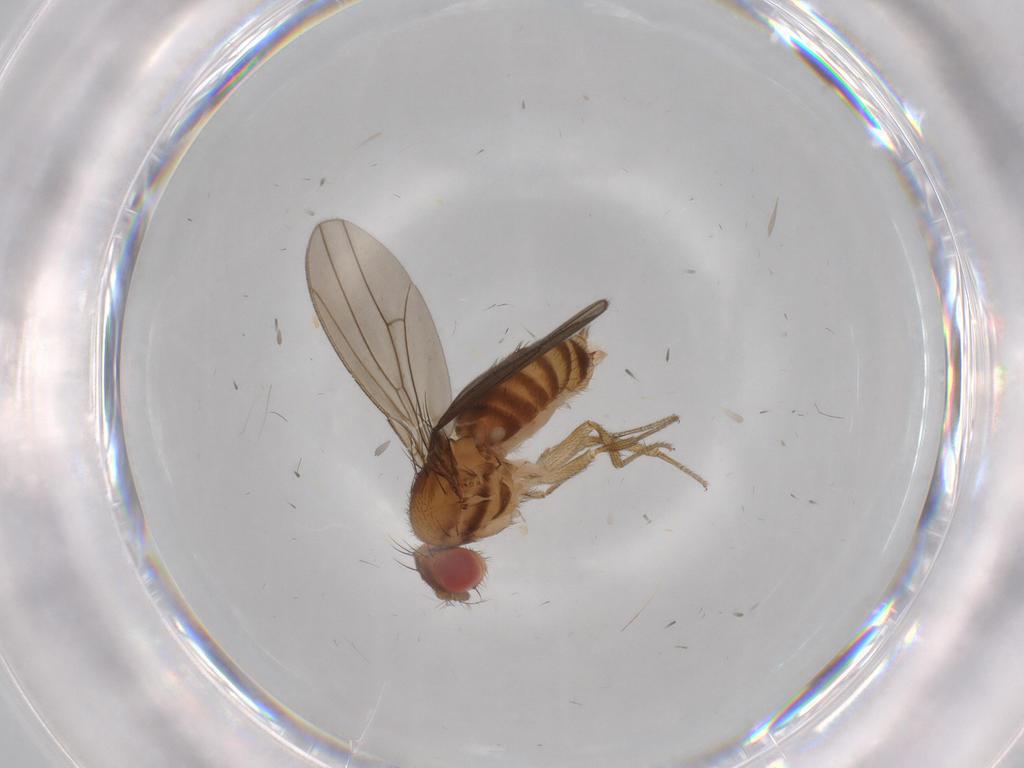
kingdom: Animalia
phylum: Arthropoda
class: Insecta
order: Diptera
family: Drosophilidae
